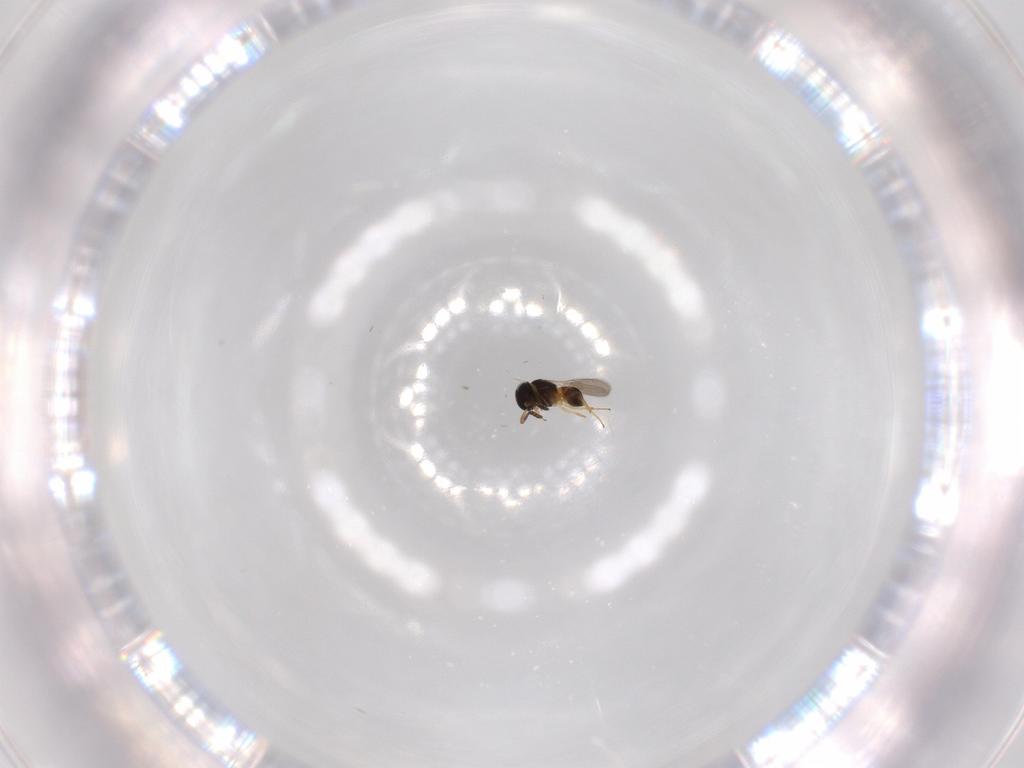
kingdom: Animalia
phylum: Arthropoda
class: Insecta
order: Hymenoptera
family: Scelionidae
